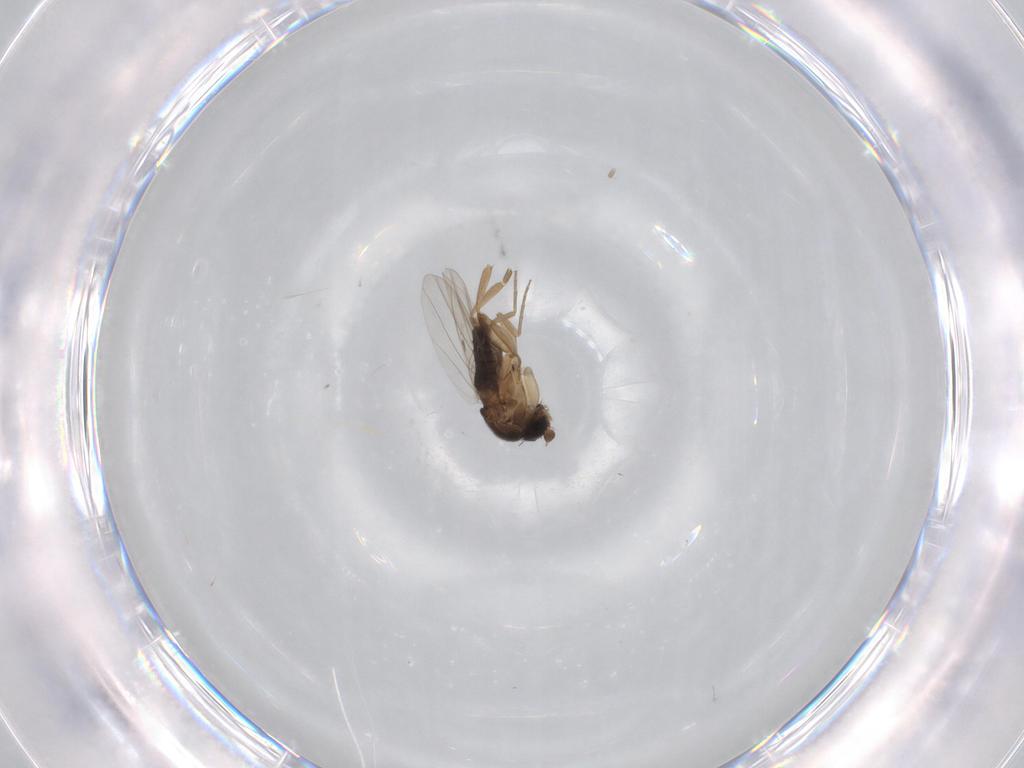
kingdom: Animalia
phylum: Arthropoda
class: Insecta
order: Diptera
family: Phoridae
